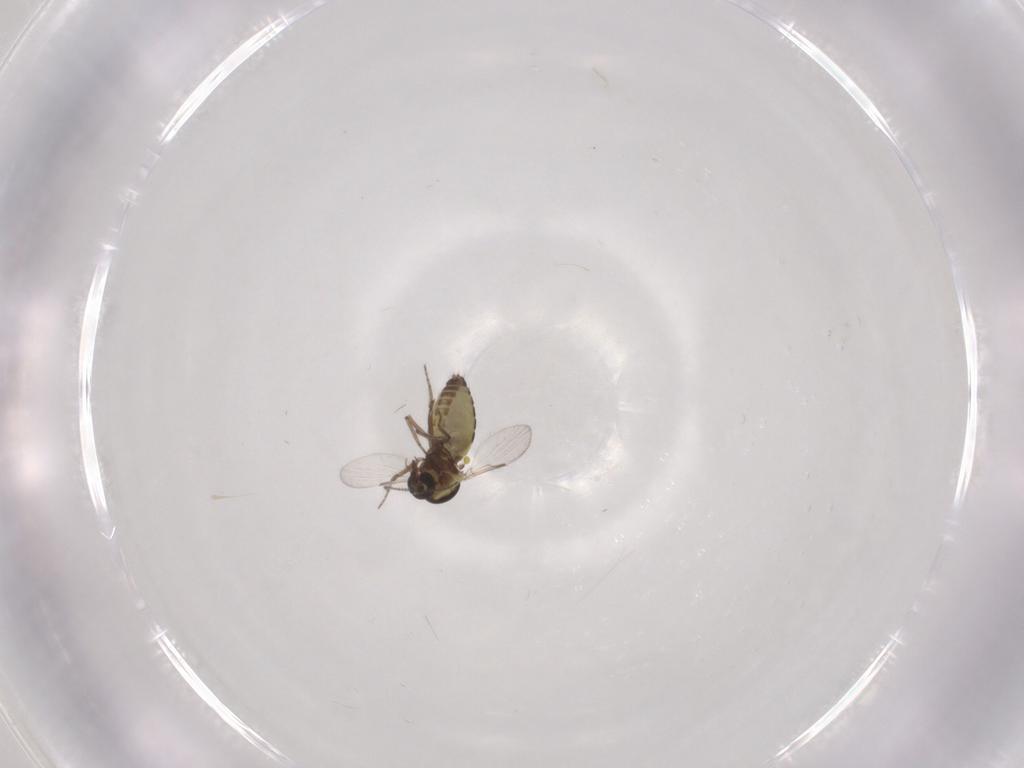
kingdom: Animalia
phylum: Arthropoda
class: Insecta
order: Diptera
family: Ceratopogonidae
